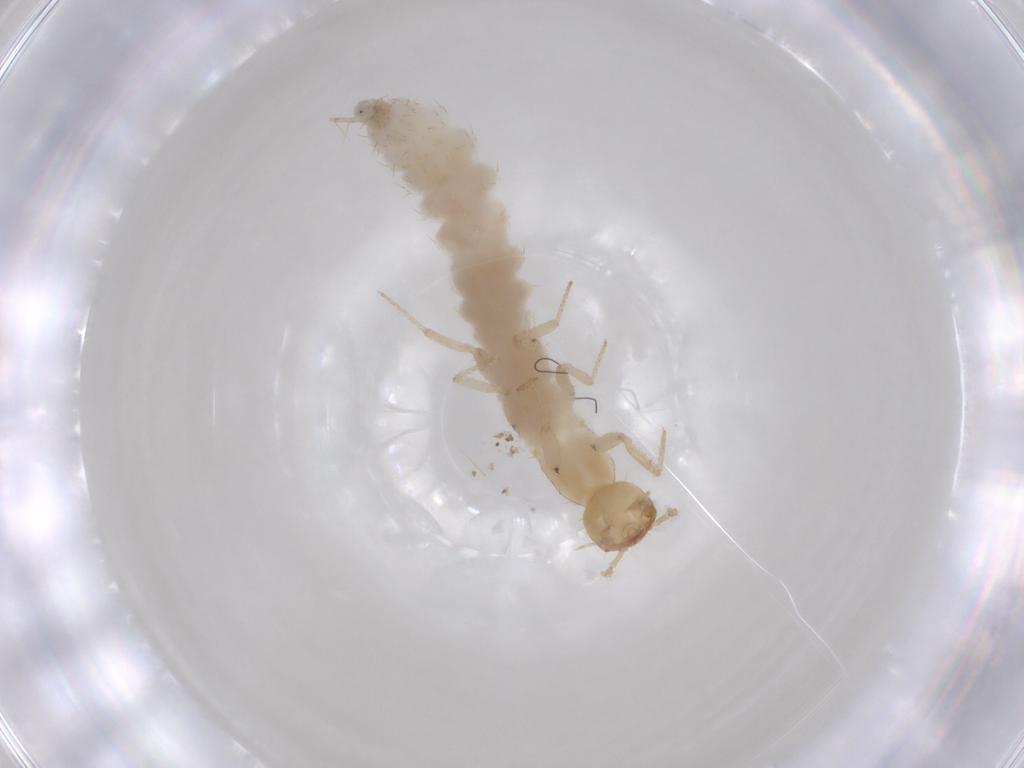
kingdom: Animalia
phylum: Arthropoda
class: Insecta
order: Coleoptera
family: Staphylinidae
